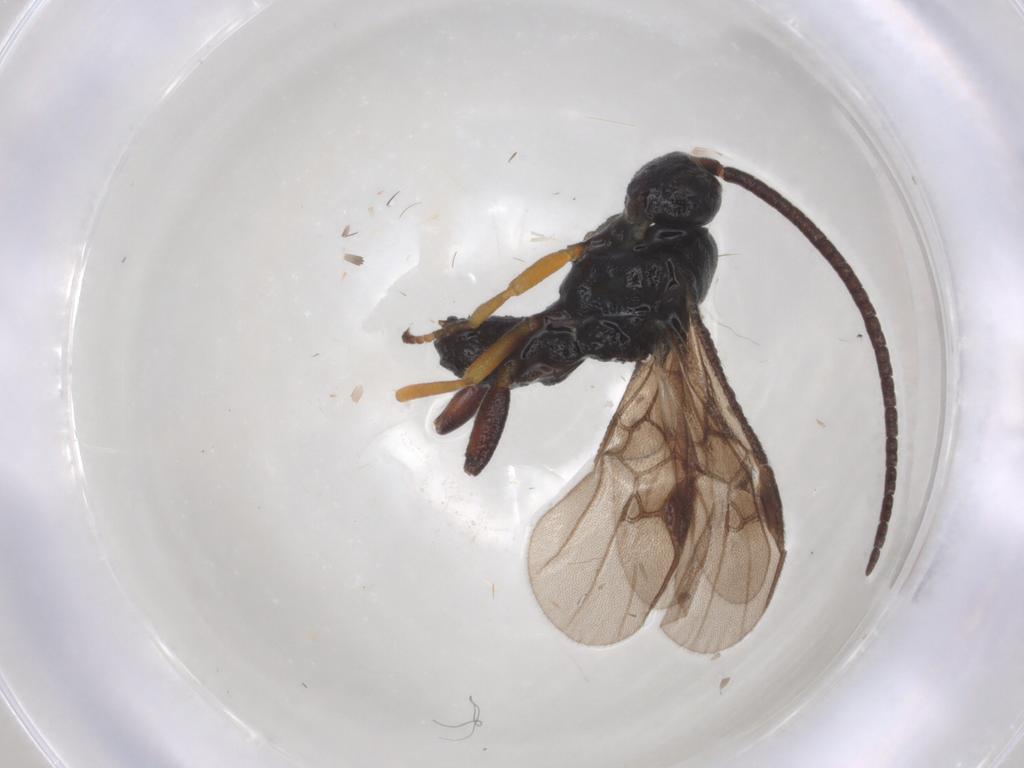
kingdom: Animalia
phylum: Arthropoda
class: Insecta
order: Hymenoptera
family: Braconidae
